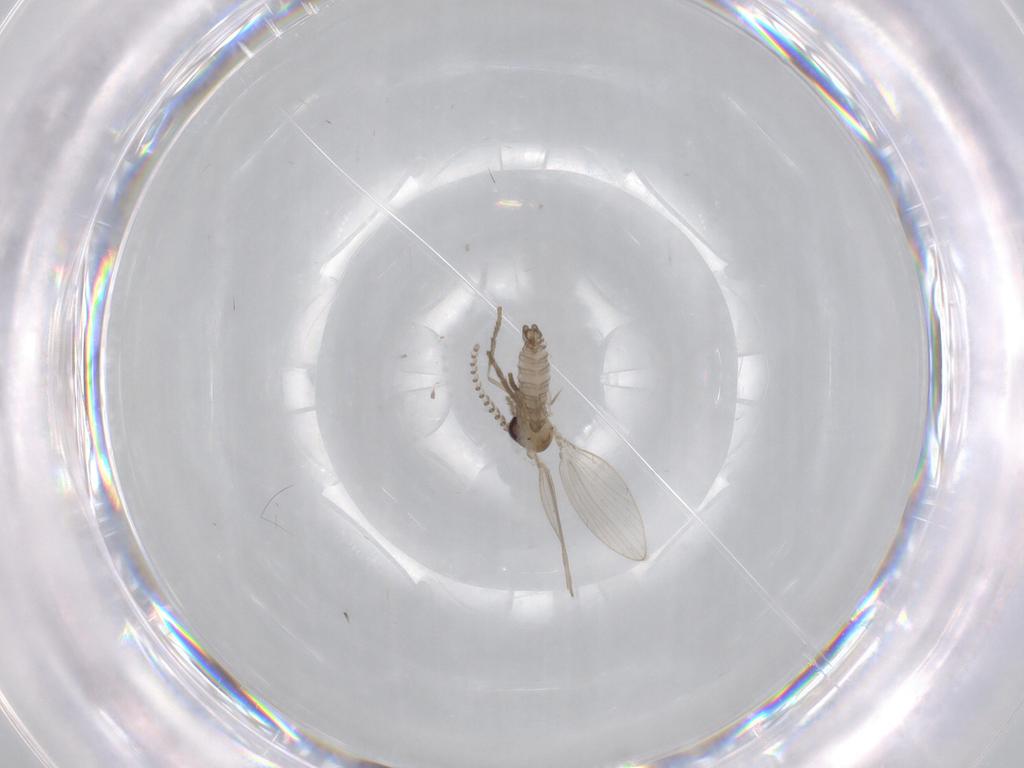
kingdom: Animalia
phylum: Arthropoda
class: Insecta
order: Diptera
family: Psychodidae
